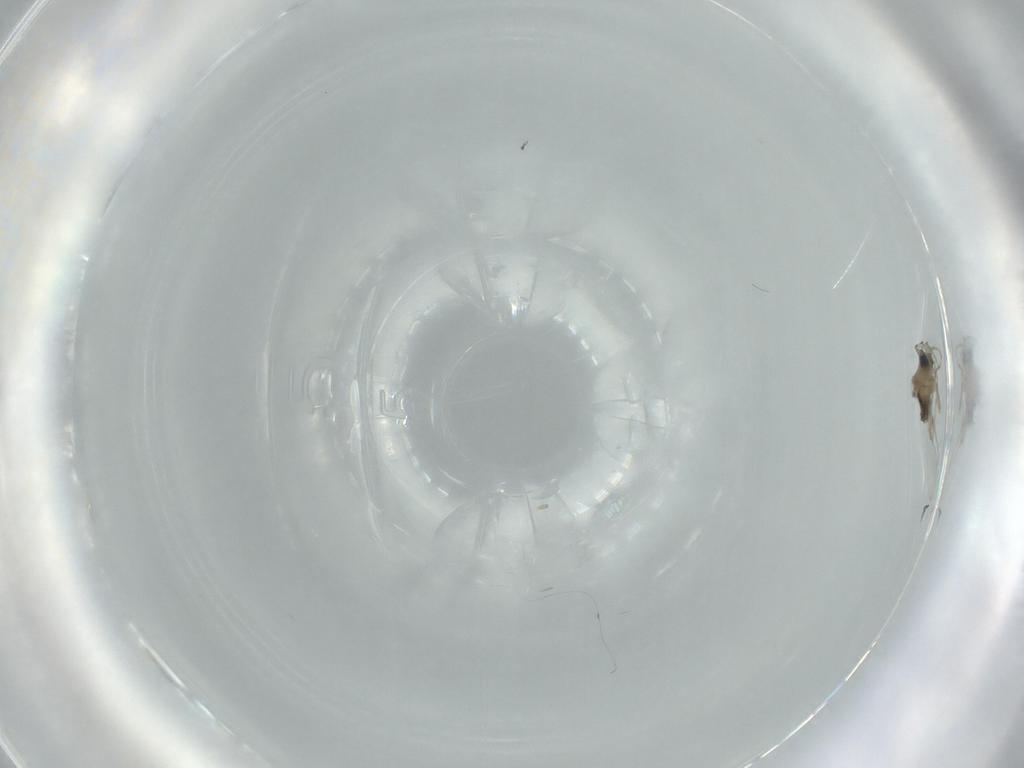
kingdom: Animalia
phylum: Arthropoda
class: Insecta
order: Diptera
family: Cecidomyiidae
